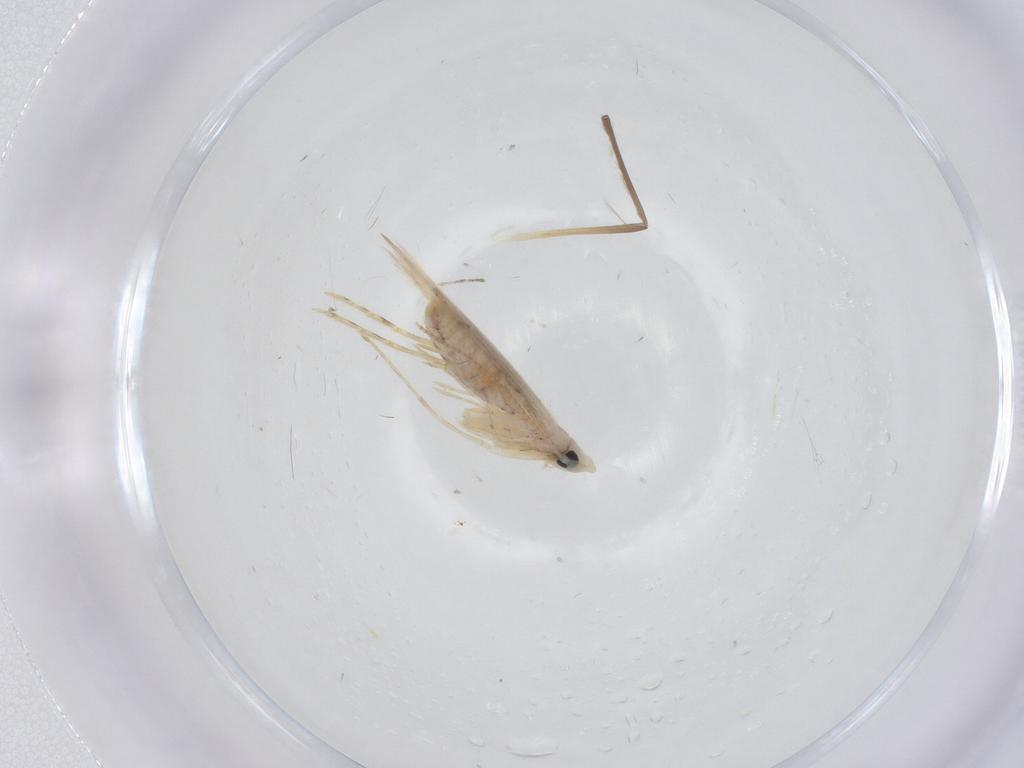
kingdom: Animalia
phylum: Arthropoda
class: Insecta
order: Lepidoptera
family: Tineidae
